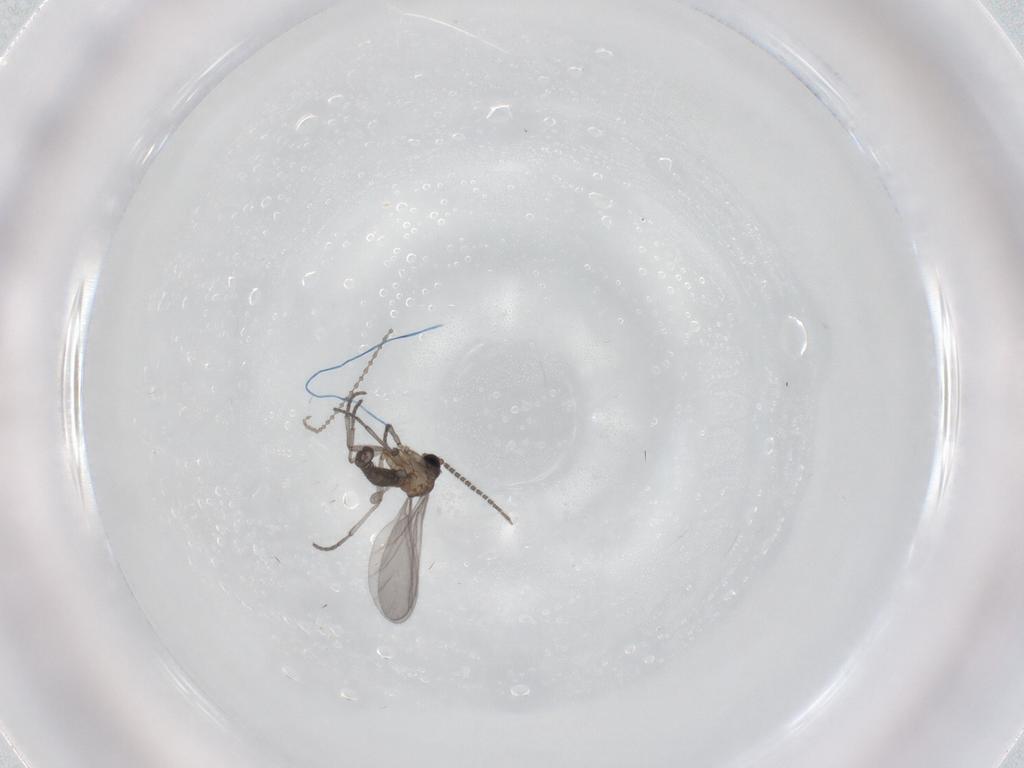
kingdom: Animalia
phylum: Arthropoda
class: Insecta
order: Diptera
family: Sciaridae
